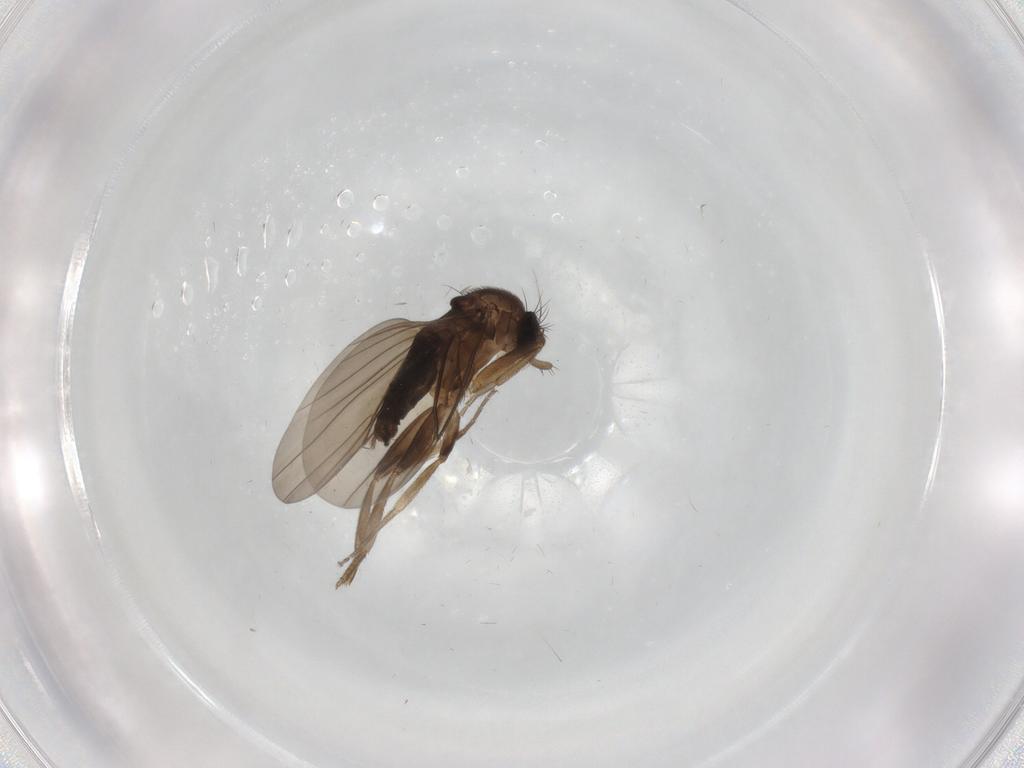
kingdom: Animalia
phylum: Arthropoda
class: Insecta
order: Diptera
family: Phoridae
